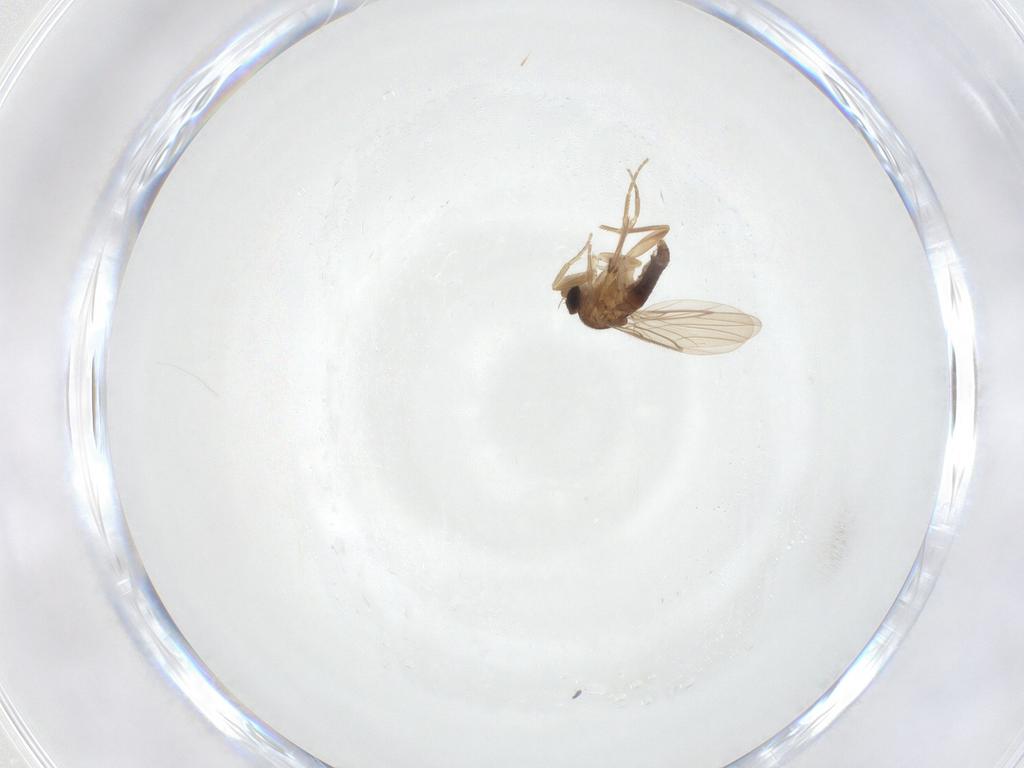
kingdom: Animalia
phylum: Arthropoda
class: Insecta
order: Diptera
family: Phoridae
